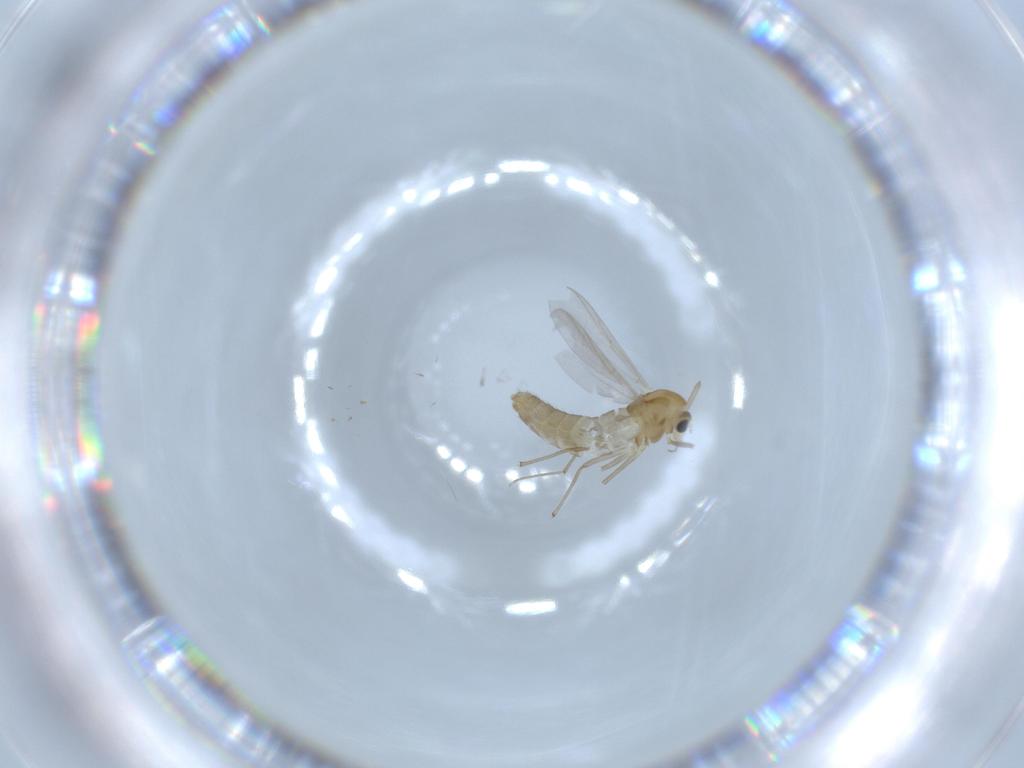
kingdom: Animalia
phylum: Arthropoda
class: Insecta
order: Diptera
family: Chironomidae
